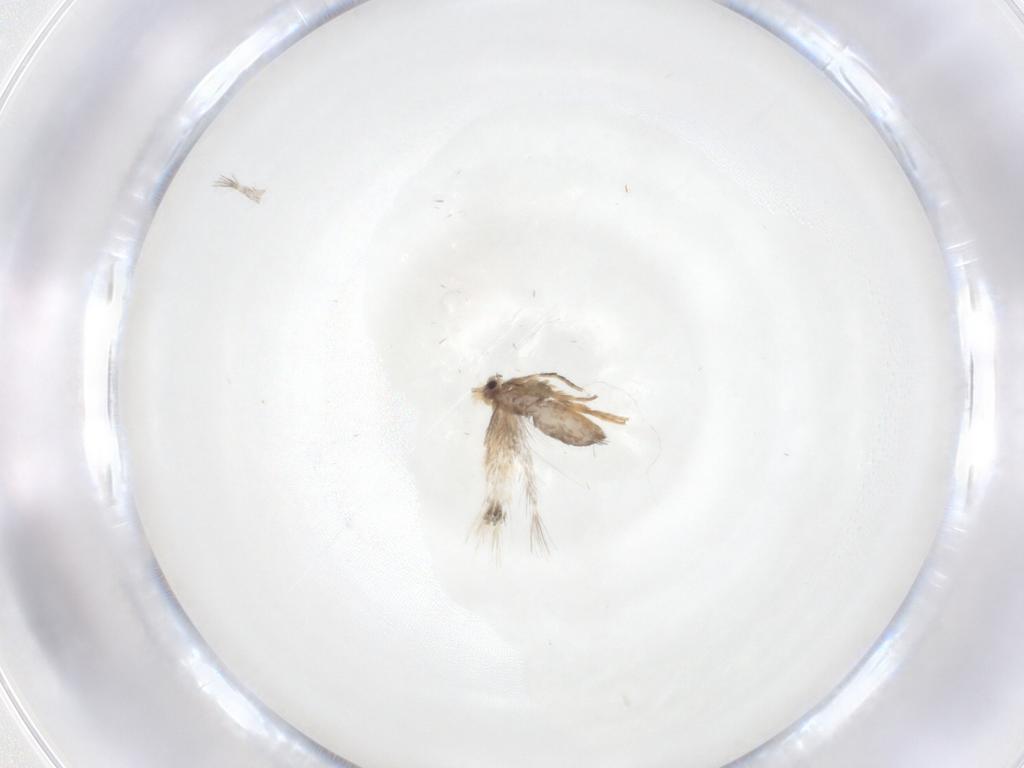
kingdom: Animalia
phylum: Arthropoda
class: Insecta
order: Lepidoptera
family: Nepticulidae
